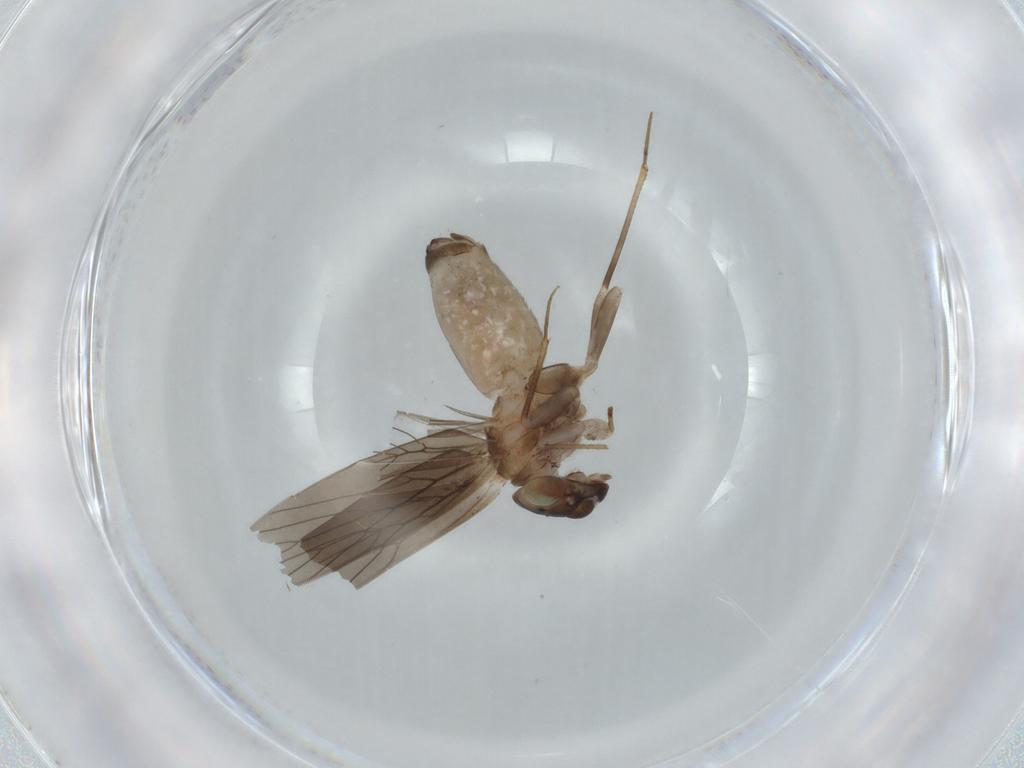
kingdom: Animalia
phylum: Arthropoda
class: Insecta
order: Psocodea
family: Lepidopsocidae
